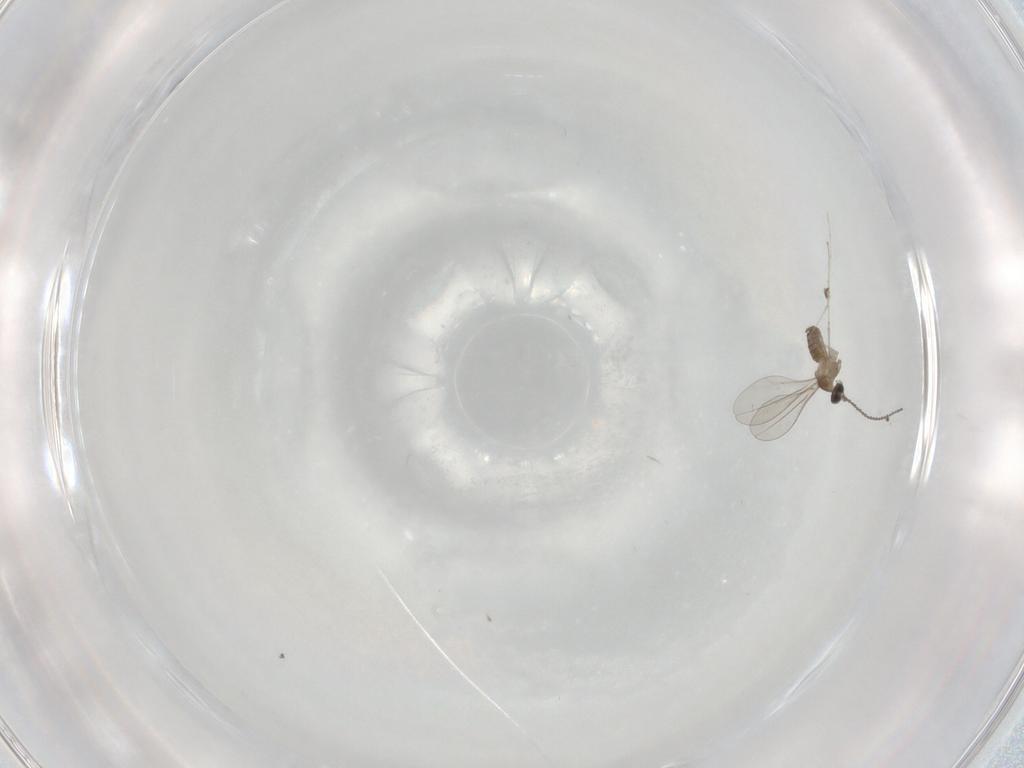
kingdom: Animalia
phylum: Arthropoda
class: Insecta
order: Diptera
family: Cecidomyiidae
